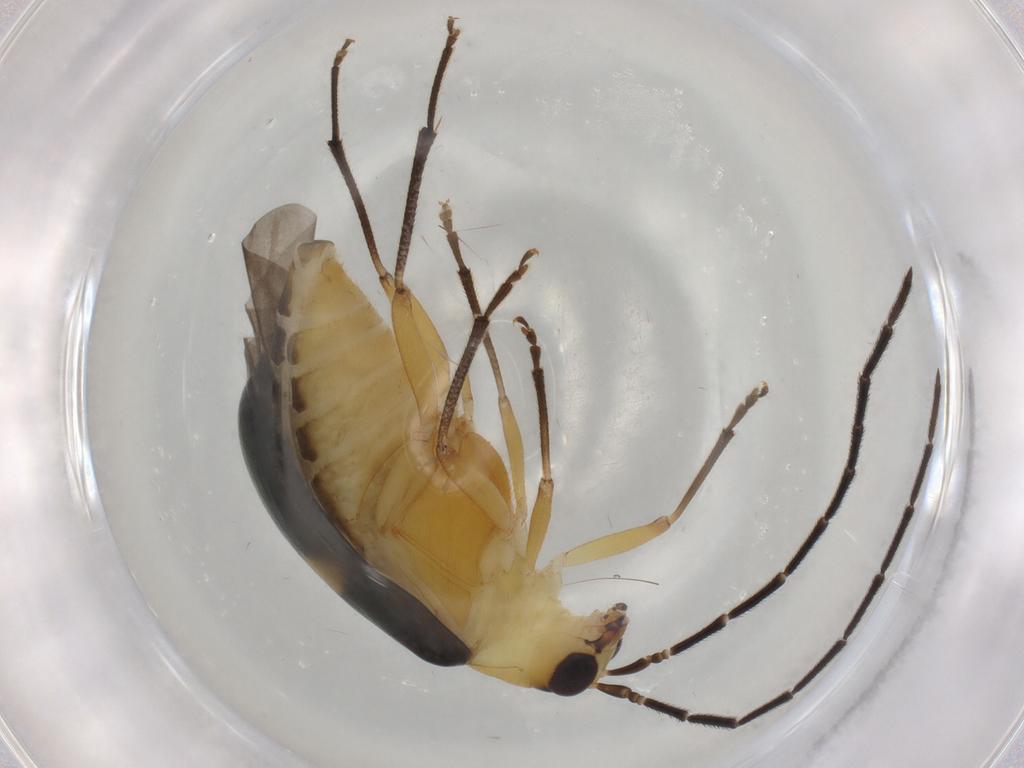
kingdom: Animalia
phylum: Arthropoda
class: Insecta
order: Coleoptera
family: Chrysomelidae
